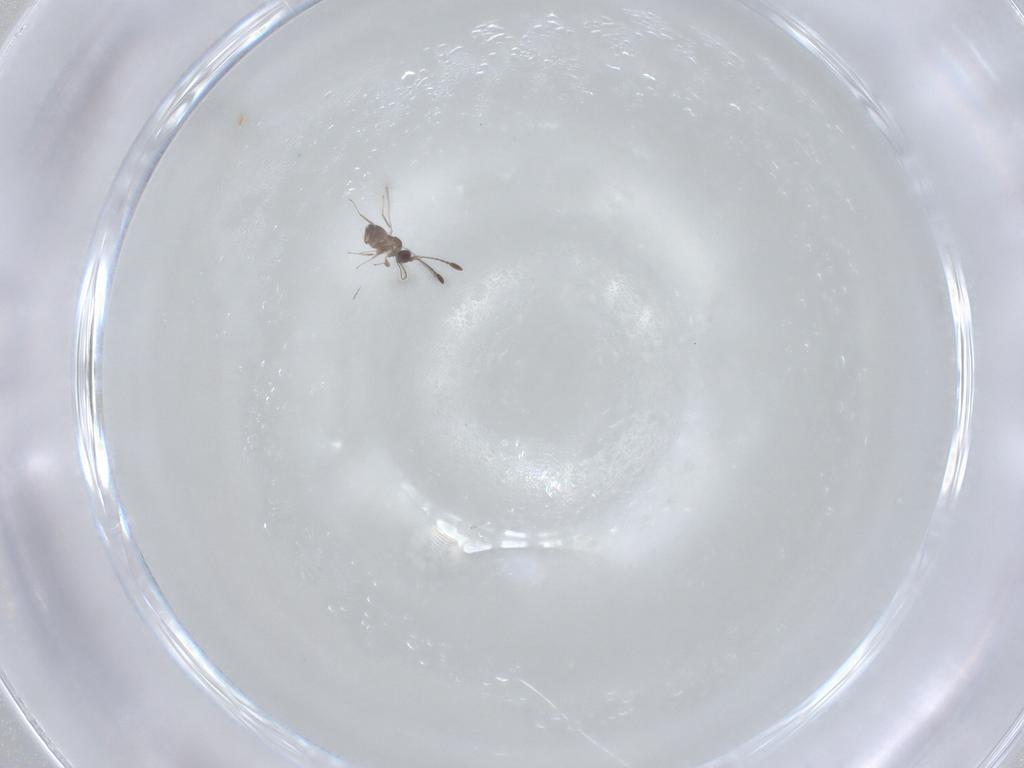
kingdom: Animalia
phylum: Arthropoda
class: Insecta
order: Hymenoptera
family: Mymaridae
